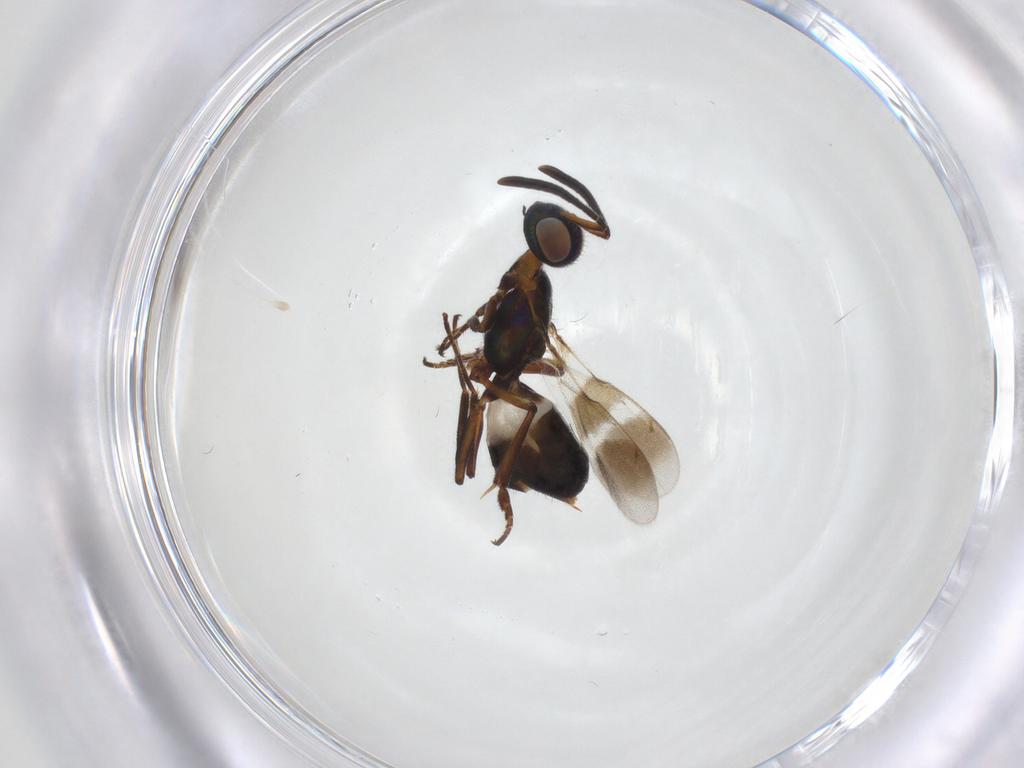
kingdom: Animalia
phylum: Arthropoda
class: Insecta
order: Hymenoptera
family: Eupelmidae
